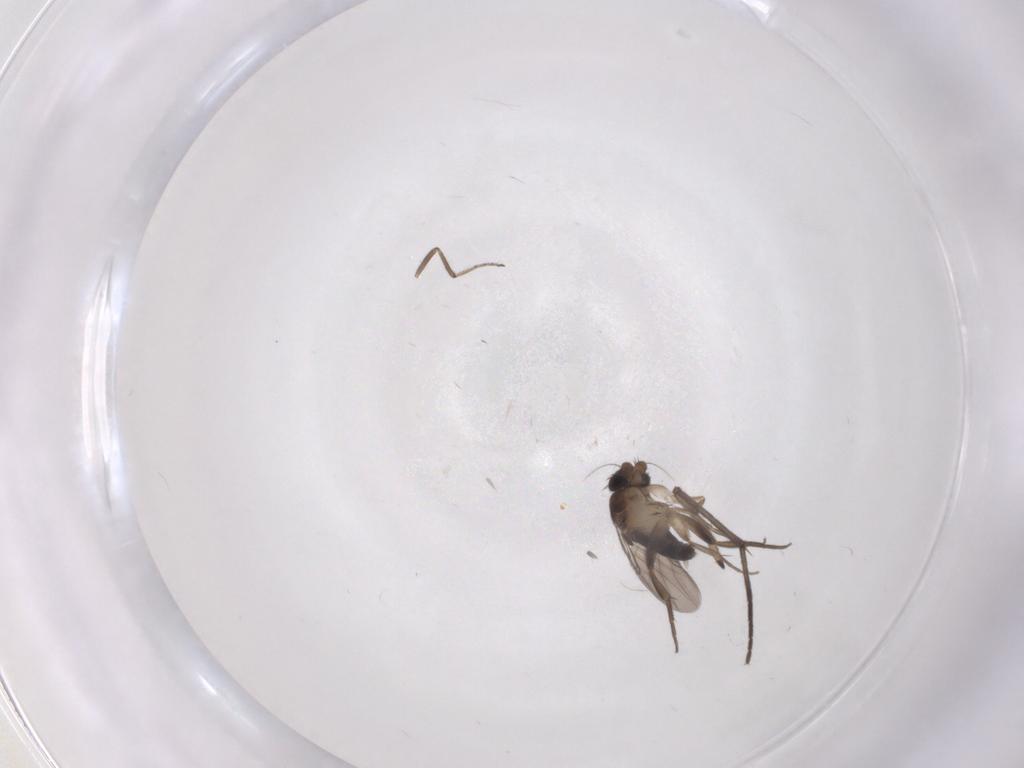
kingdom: Animalia
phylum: Arthropoda
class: Insecta
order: Diptera
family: Phoridae
